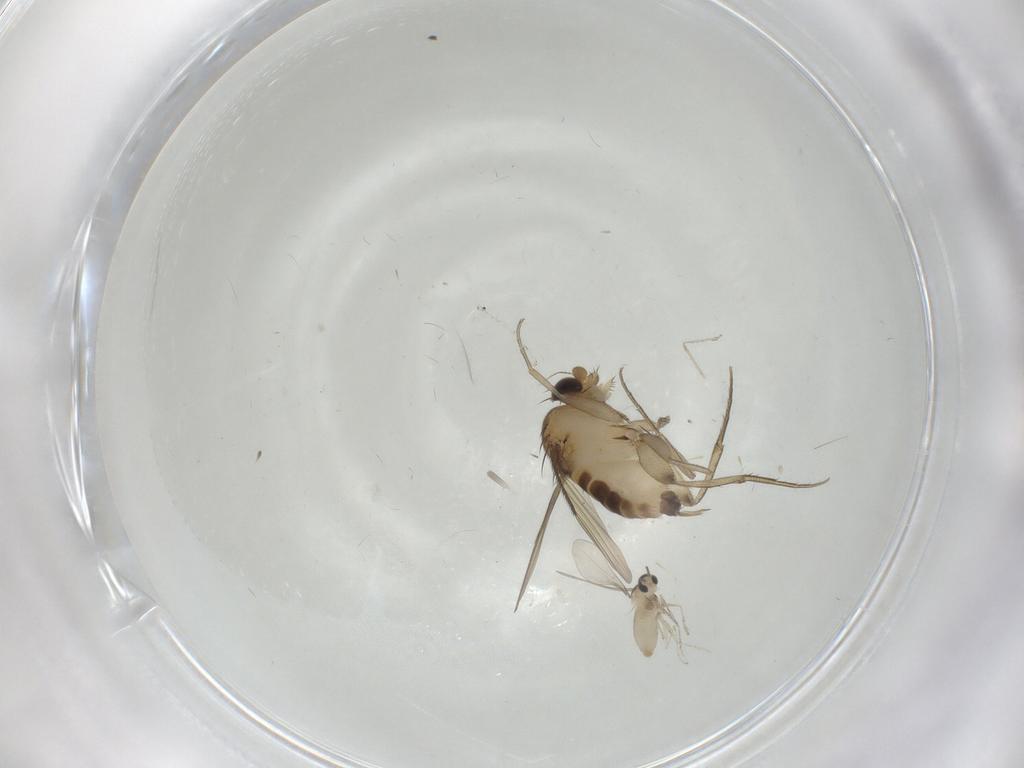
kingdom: Animalia
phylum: Arthropoda
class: Insecta
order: Diptera
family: Phoridae
